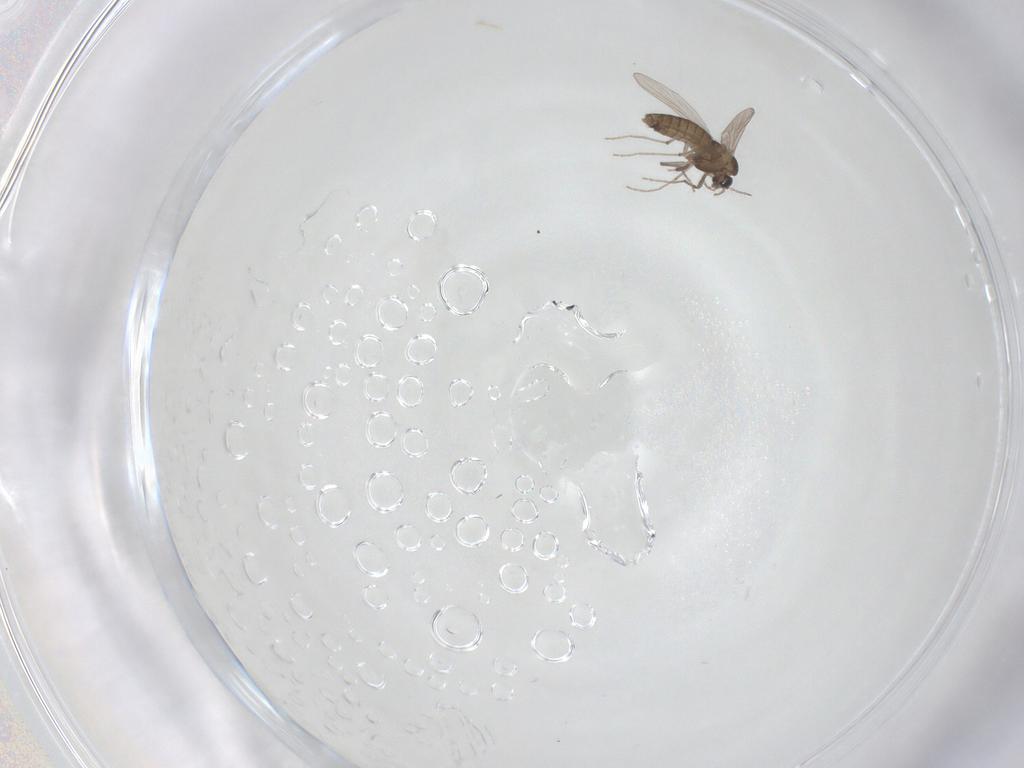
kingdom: Animalia
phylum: Arthropoda
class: Insecta
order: Diptera
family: Chironomidae
